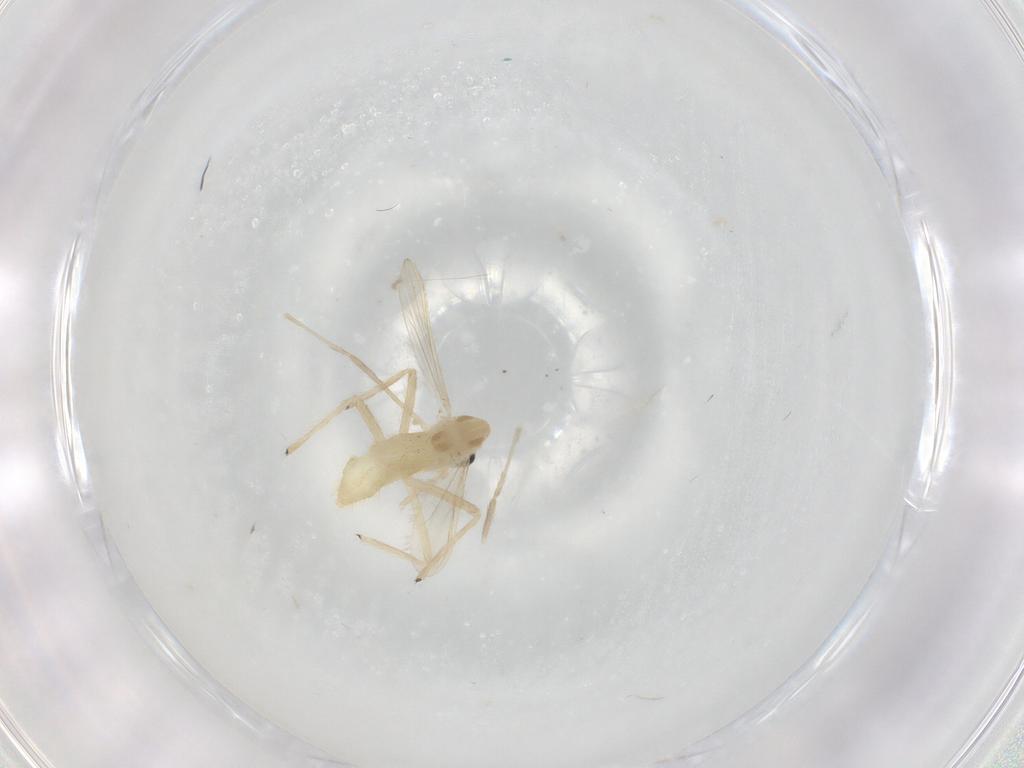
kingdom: Animalia
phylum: Arthropoda
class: Insecta
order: Diptera
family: Chironomidae
